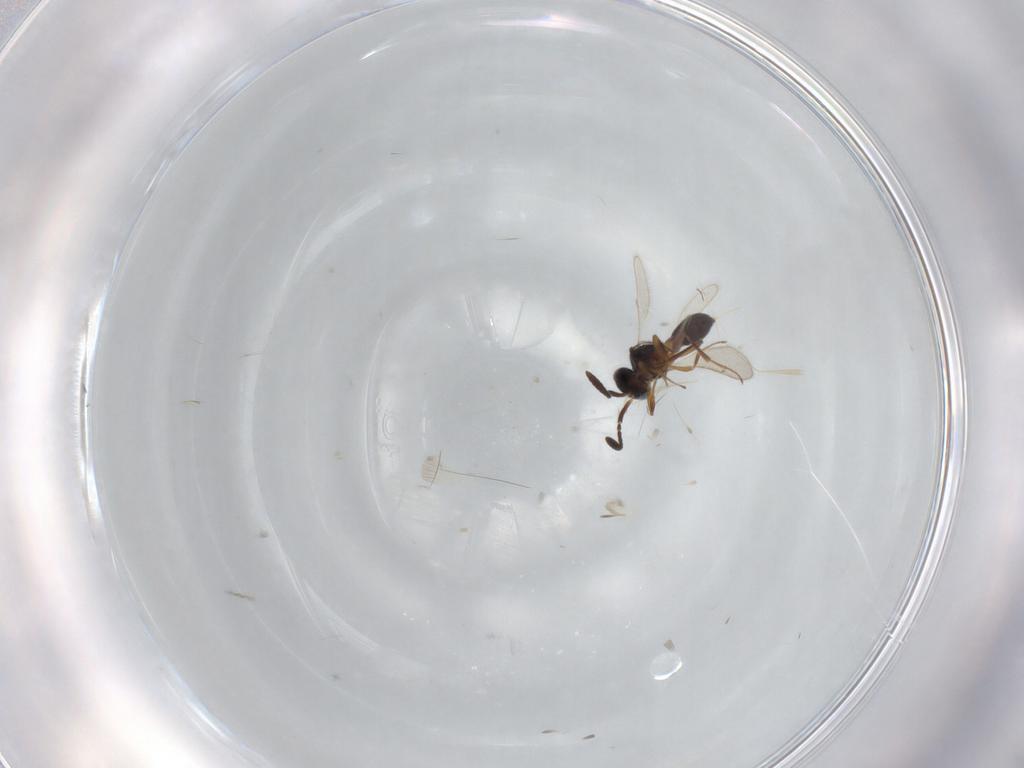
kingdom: Animalia
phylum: Arthropoda
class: Insecta
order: Hymenoptera
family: Scelionidae
